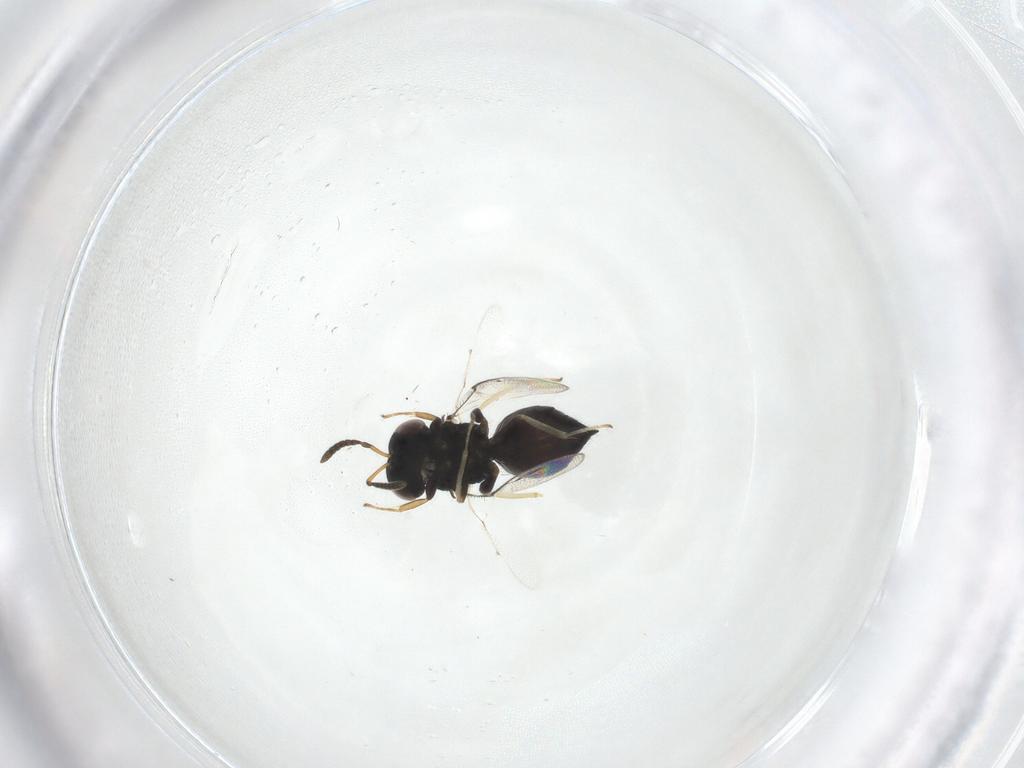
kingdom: Animalia
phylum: Arthropoda
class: Insecta
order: Hymenoptera
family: Pteromalidae
